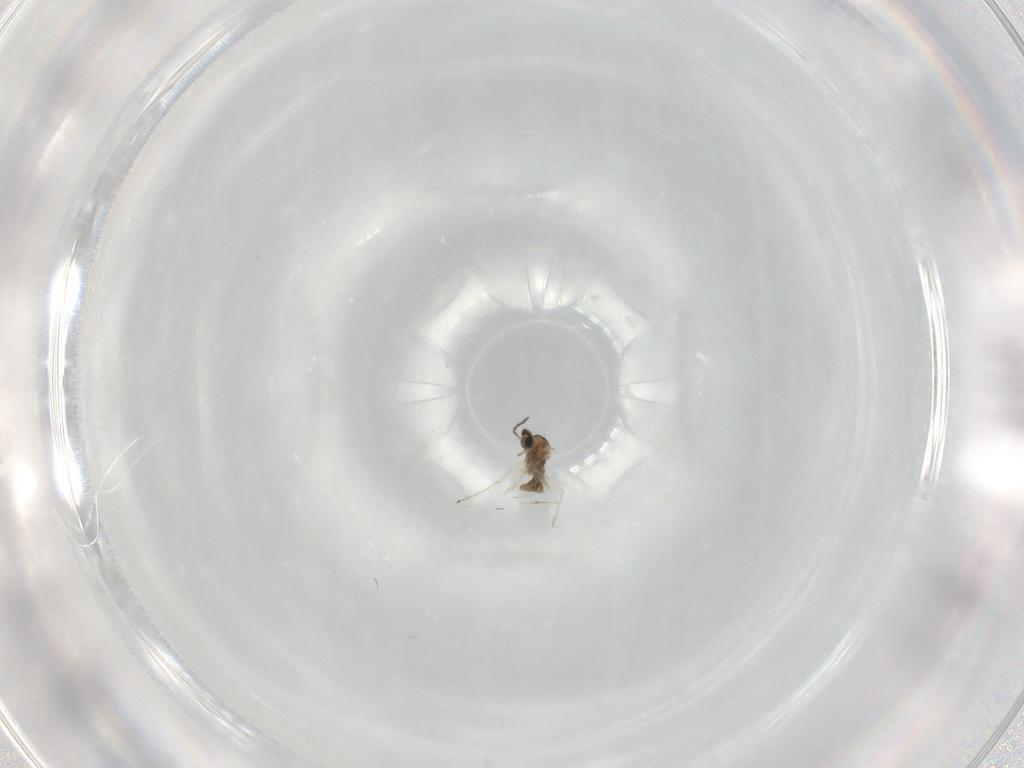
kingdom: Animalia
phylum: Arthropoda
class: Insecta
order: Diptera
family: Cecidomyiidae
